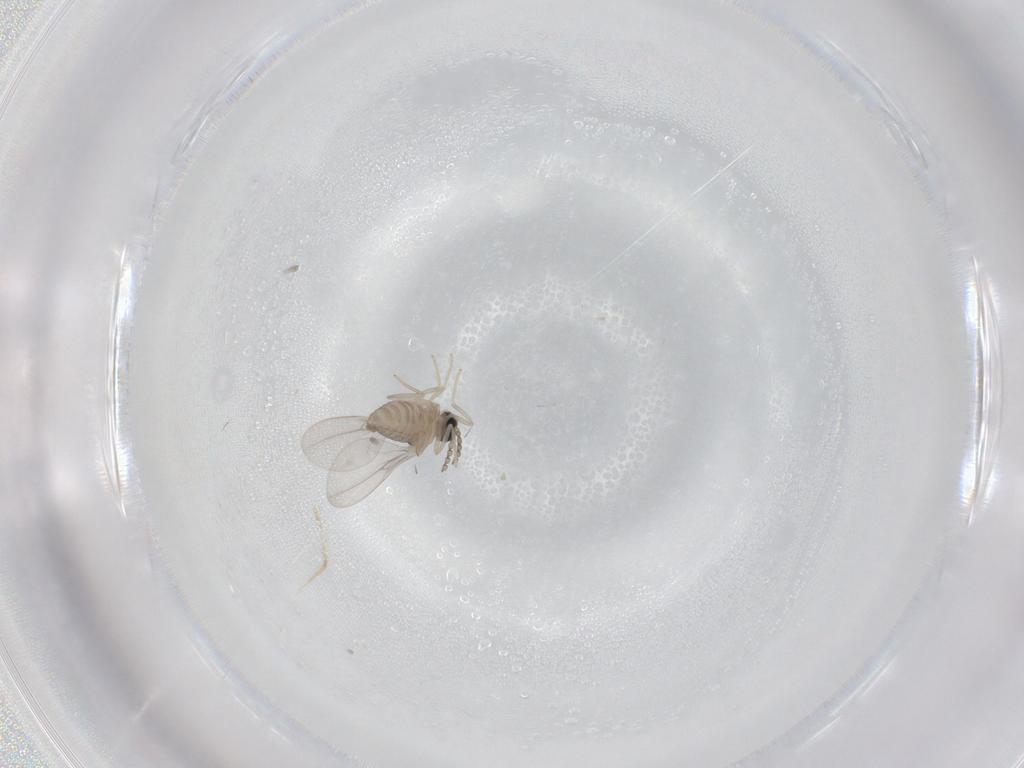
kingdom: Animalia
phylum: Arthropoda
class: Insecta
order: Diptera
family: Cecidomyiidae
